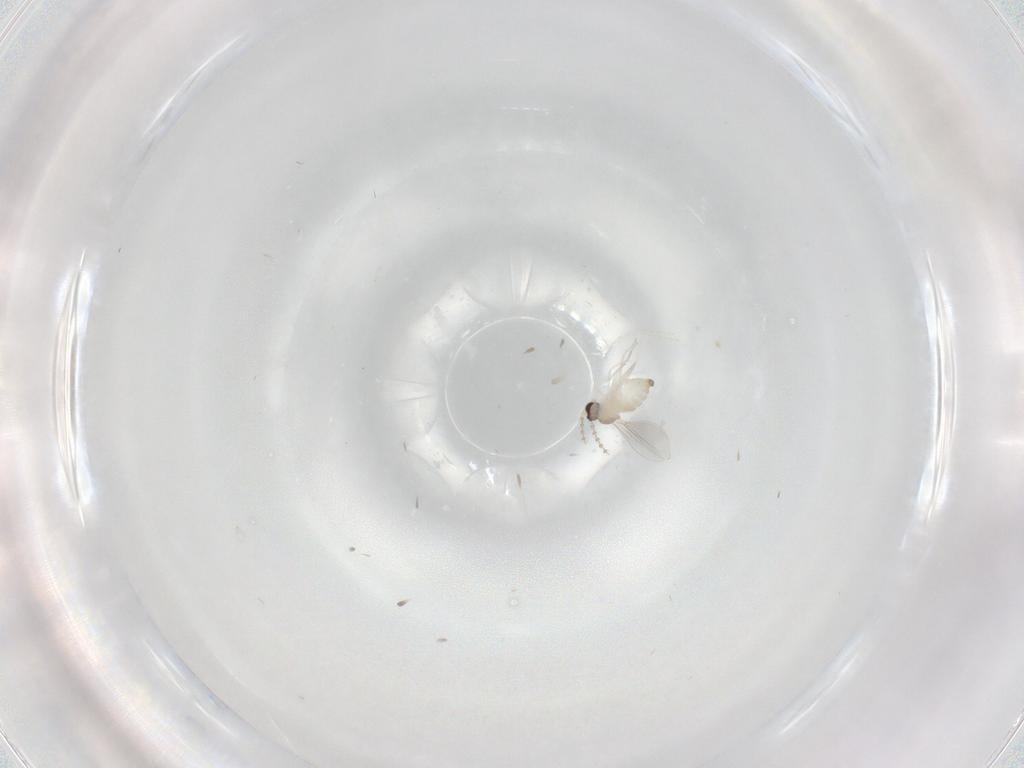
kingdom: Animalia
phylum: Arthropoda
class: Insecta
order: Diptera
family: Cecidomyiidae
